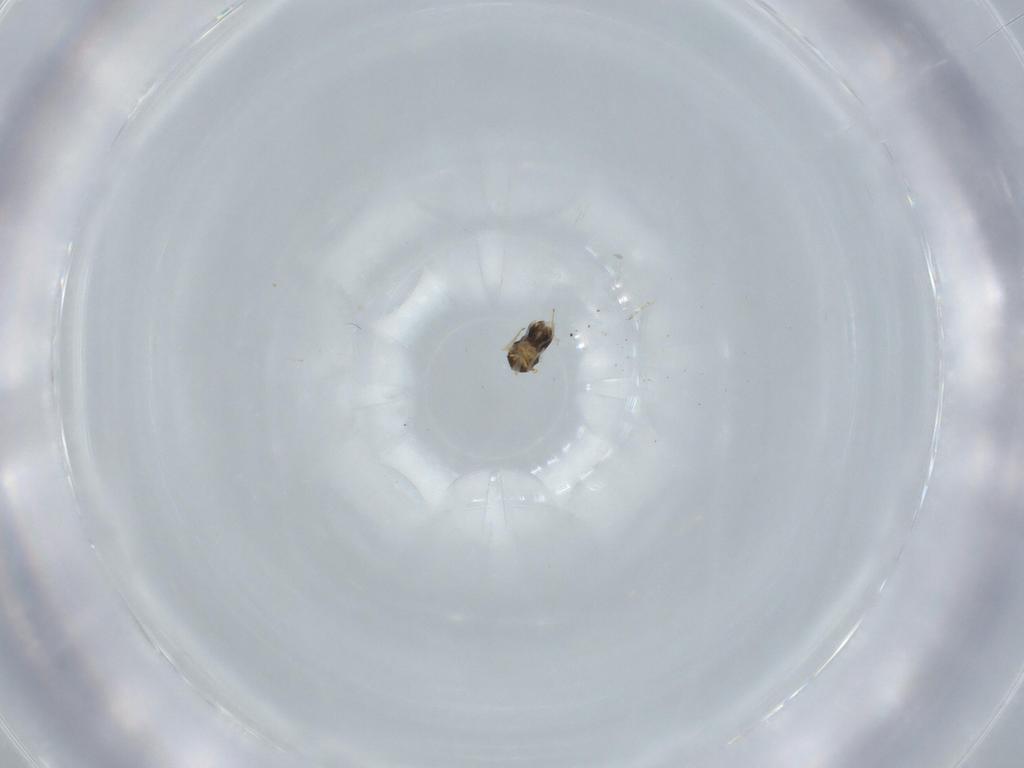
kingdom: Animalia
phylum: Arthropoda
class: Insecta
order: Hymenoptera
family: Aphelinidae
